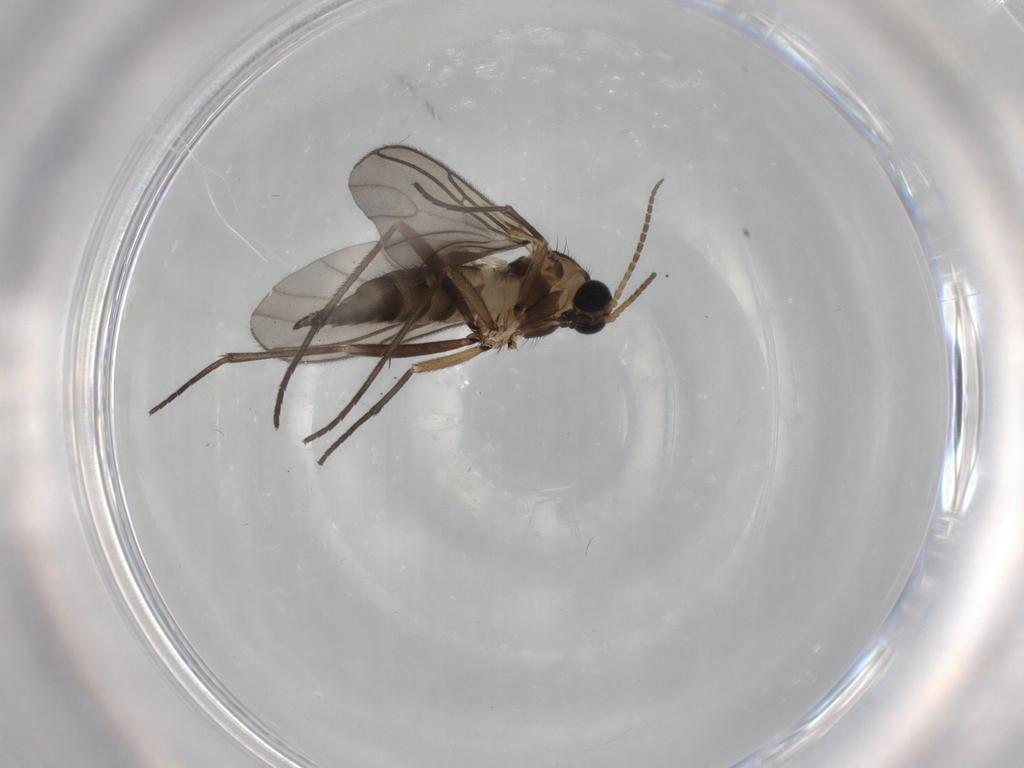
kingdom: Animalia
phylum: Arthropoda
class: Insecta
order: Diptera
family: Sciaridae
